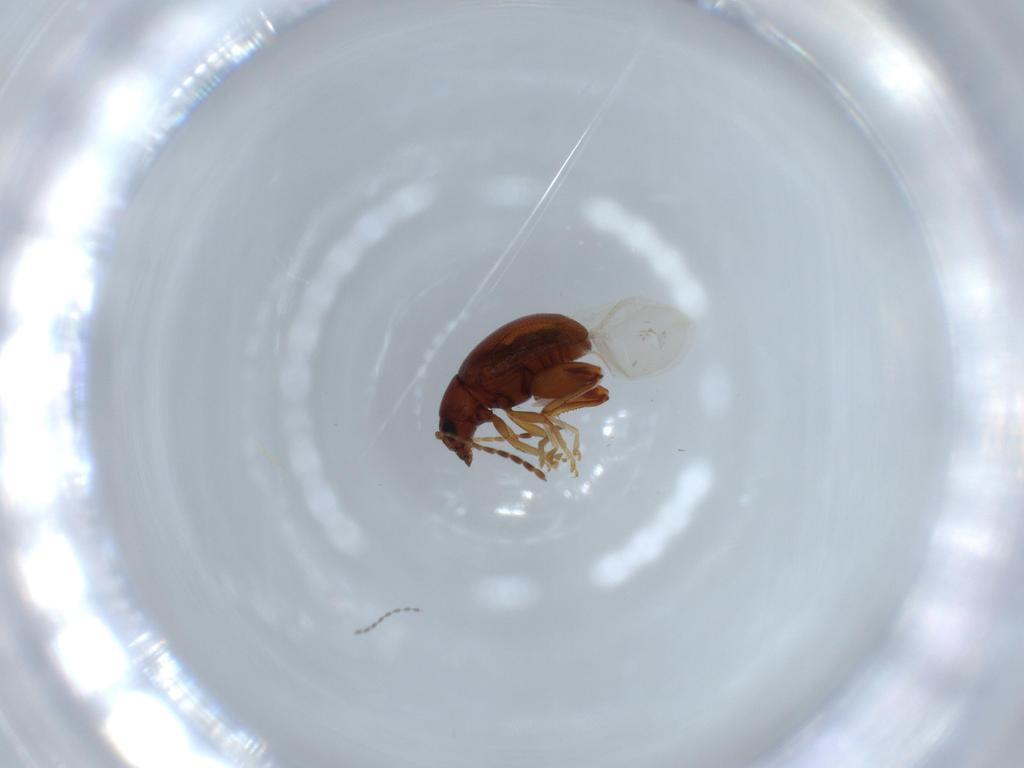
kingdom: Animalia
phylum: Arthropoda
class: Insecta
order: Coleoptera
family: Chrysomelidae
